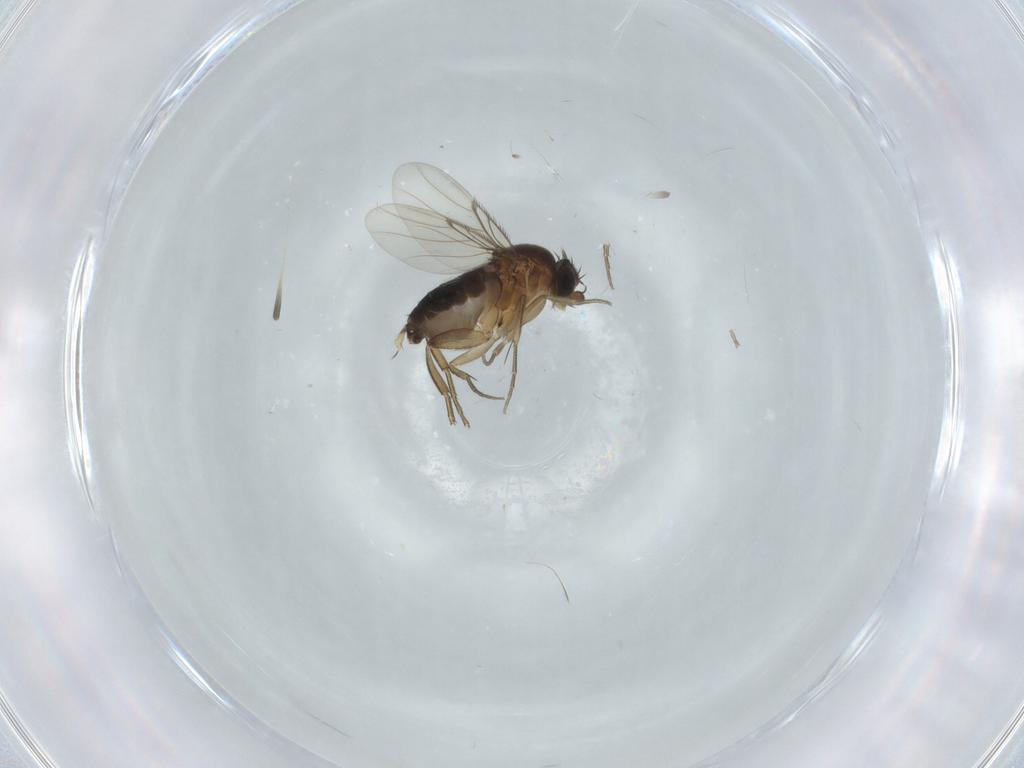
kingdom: Animalia
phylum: Arthropoda
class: Insecta
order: Diptera
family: Phoridae
